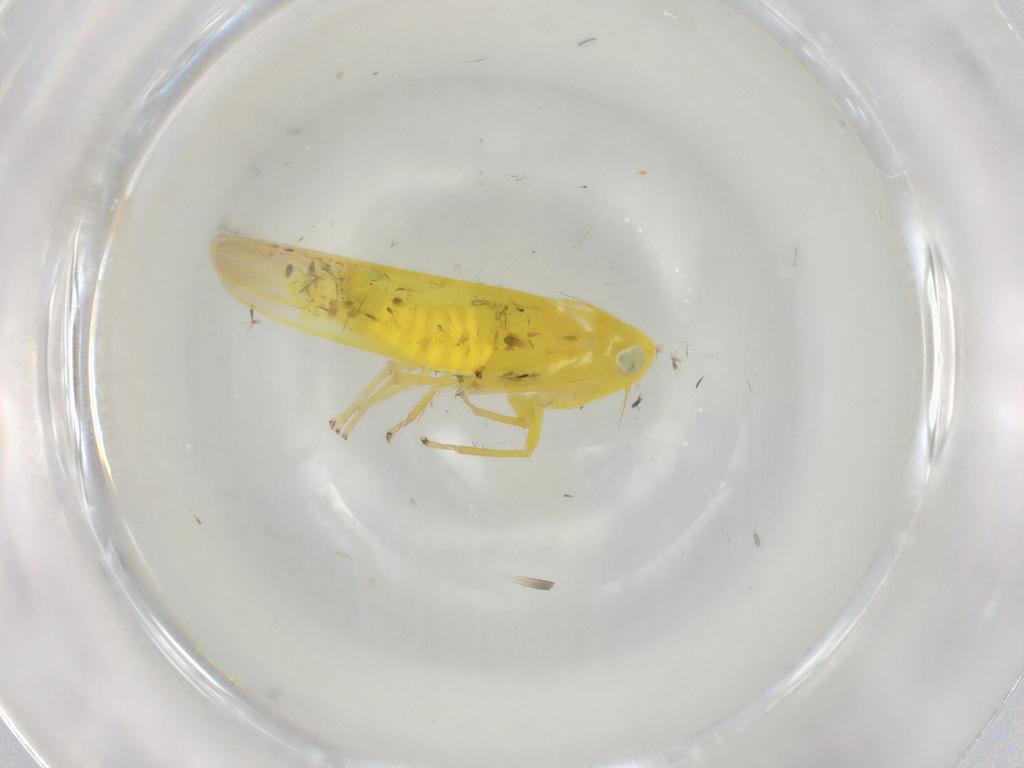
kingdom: Animalia
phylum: Arthropoda
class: Insecta
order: Hemiptera
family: Cicadellidae
